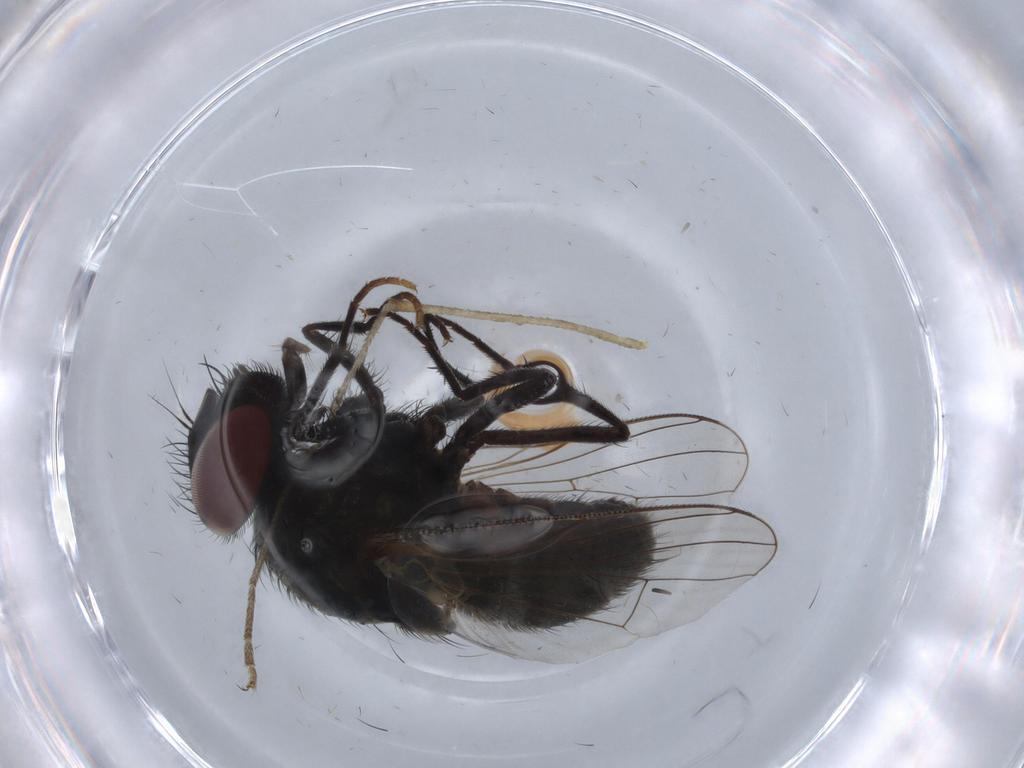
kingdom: Animalia
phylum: Arthropoda
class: Insecta
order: Diptera
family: Muscidae
